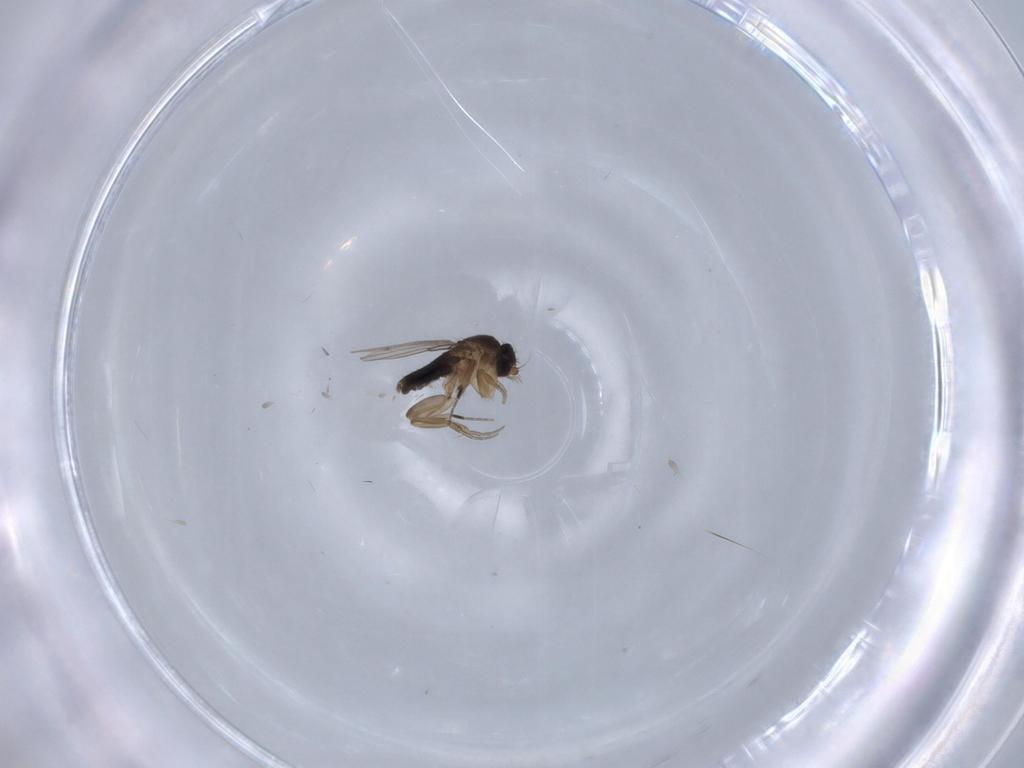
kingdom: Animalia
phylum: Arthropoda
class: Insecta
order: Diptera
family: Phoridae
